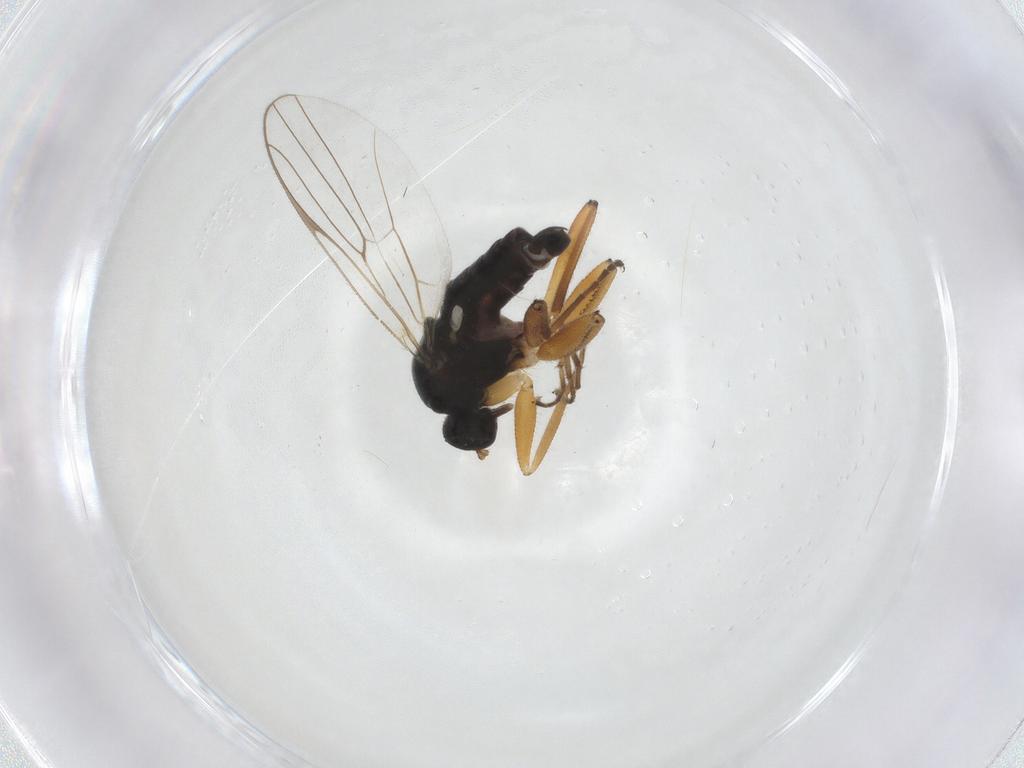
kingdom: Animalia
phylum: Arthropoda
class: Insecta
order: Diptera
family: Hybotidae
